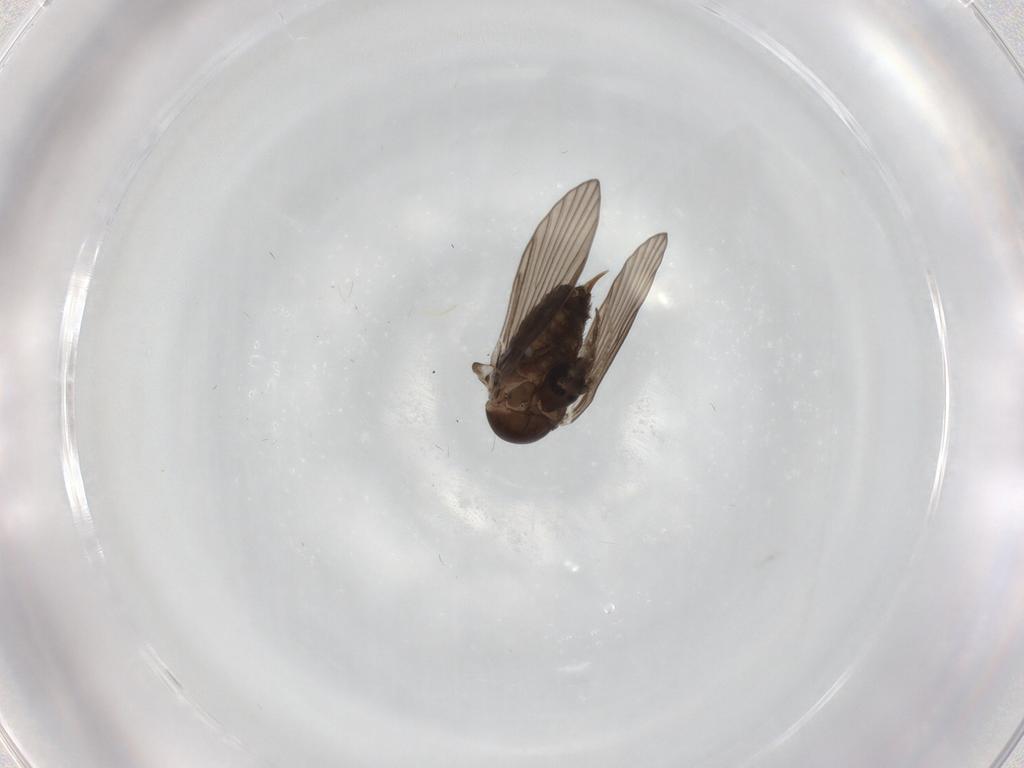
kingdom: Animalia
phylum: Arthropoda
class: Insecta
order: Diptera
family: Psychodidae
